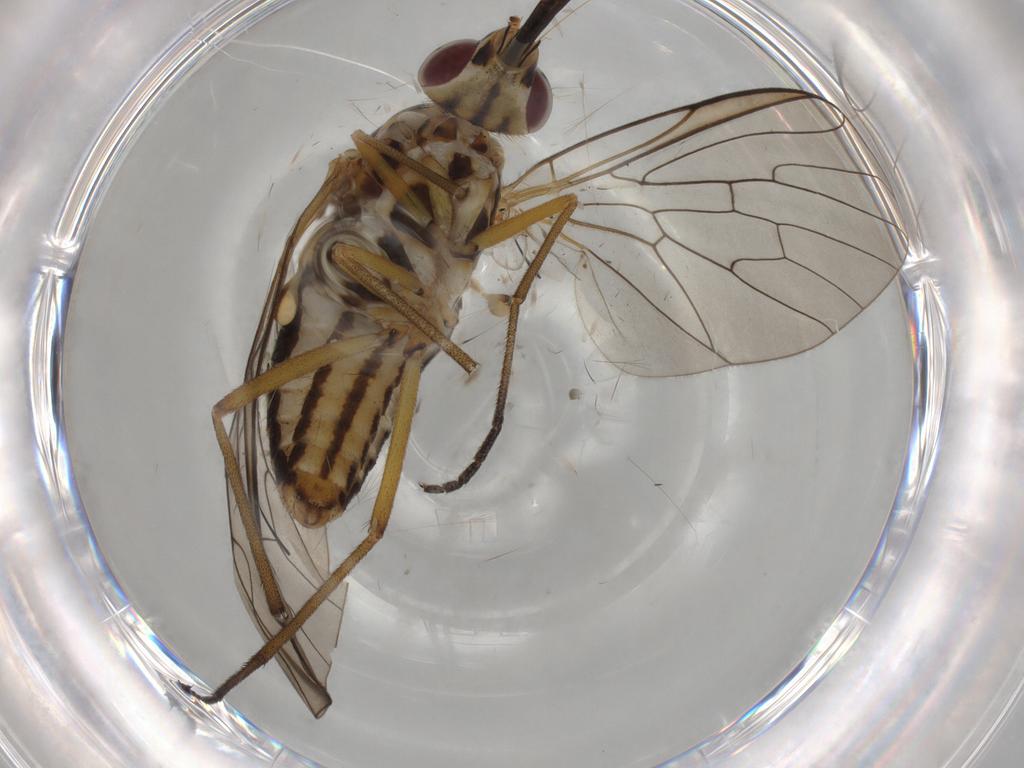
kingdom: Animalia
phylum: Arthropoda
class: Insecta
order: Diptera
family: Bombyliidae
